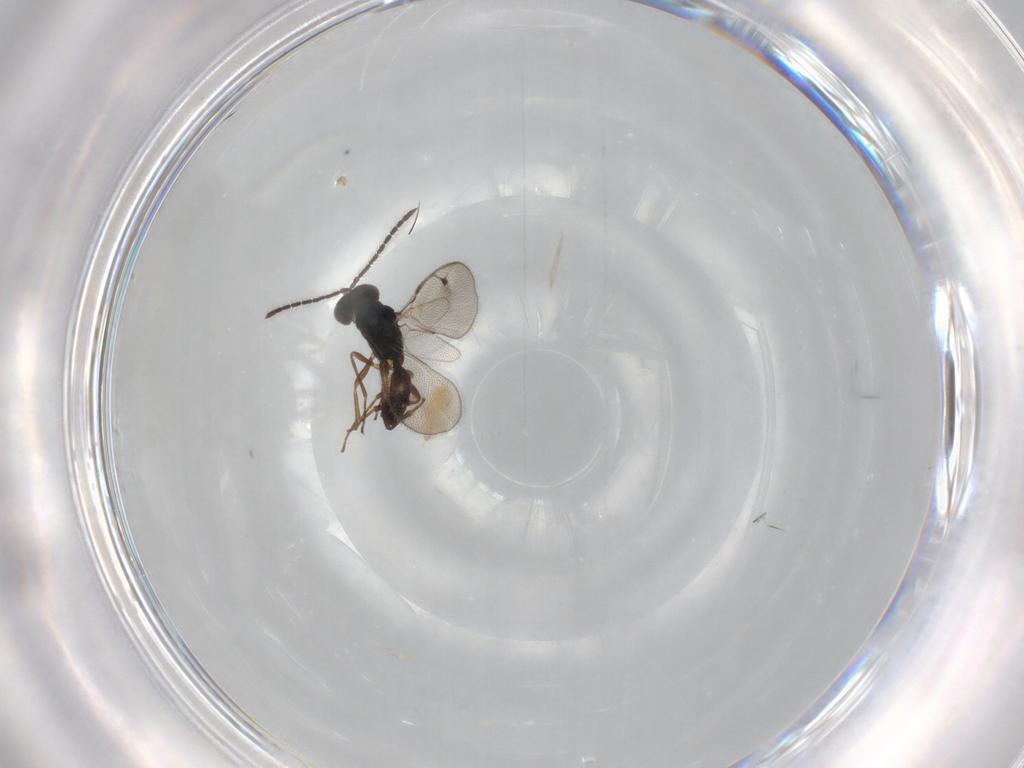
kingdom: Animalia
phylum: Arthropoda
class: Insecta
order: Hymenoptera
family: Pteromalidae
